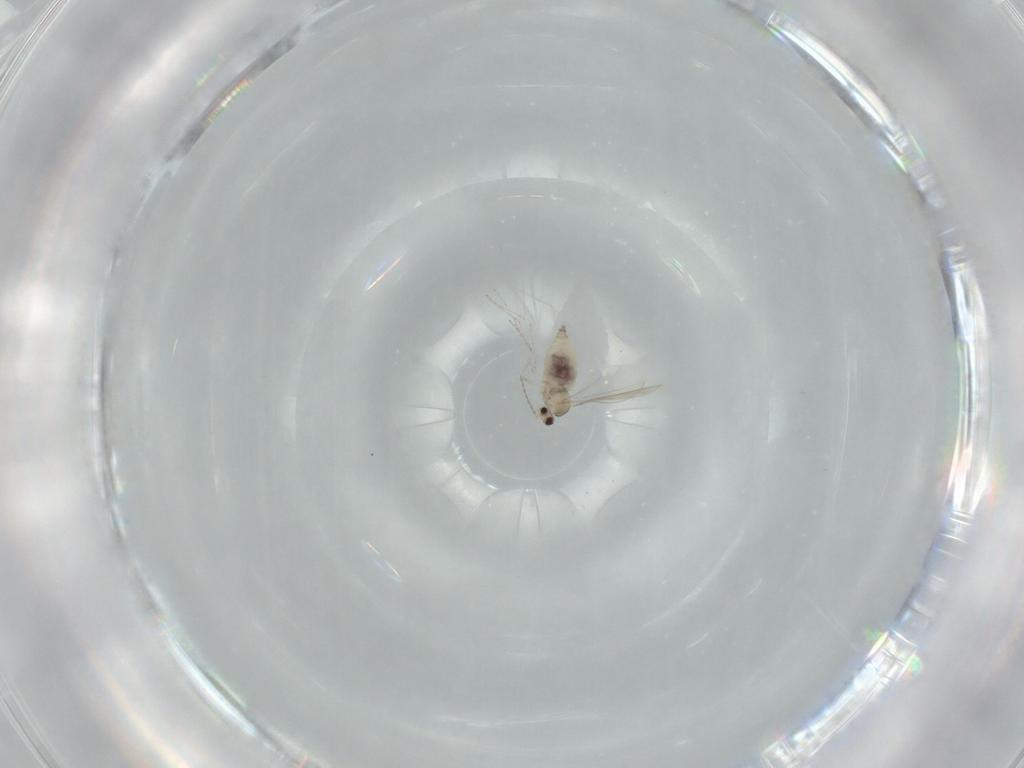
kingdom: Animalia
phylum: Arthropoda
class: Insecta
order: Diptera
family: Cecidomyiidae
